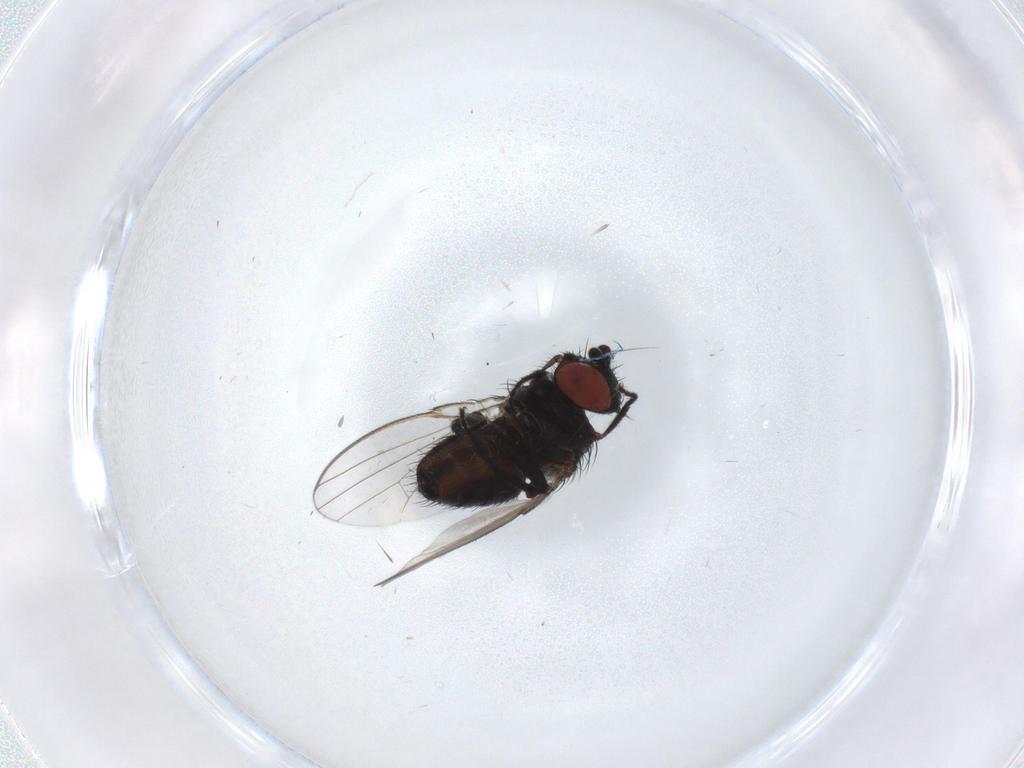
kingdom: Animalia
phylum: Arthropoda
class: Insecta
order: Diptera
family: Milichiidae
